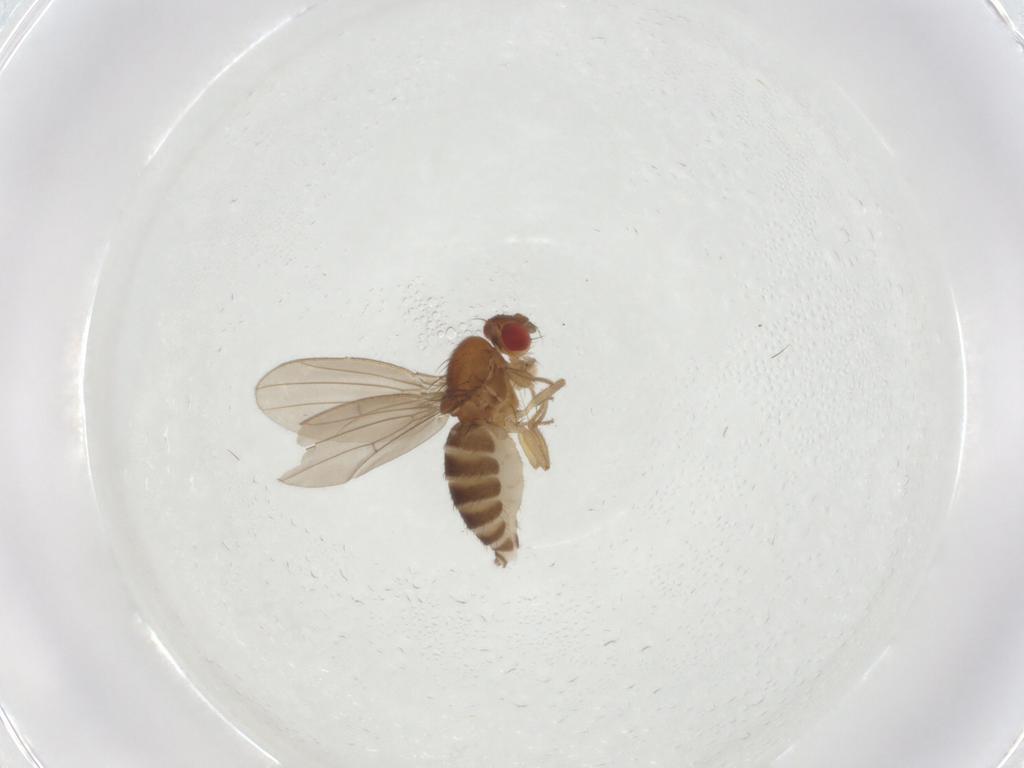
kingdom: Animalia
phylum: Arthropoda
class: Insecta
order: Diptera
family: Drosophilidae
